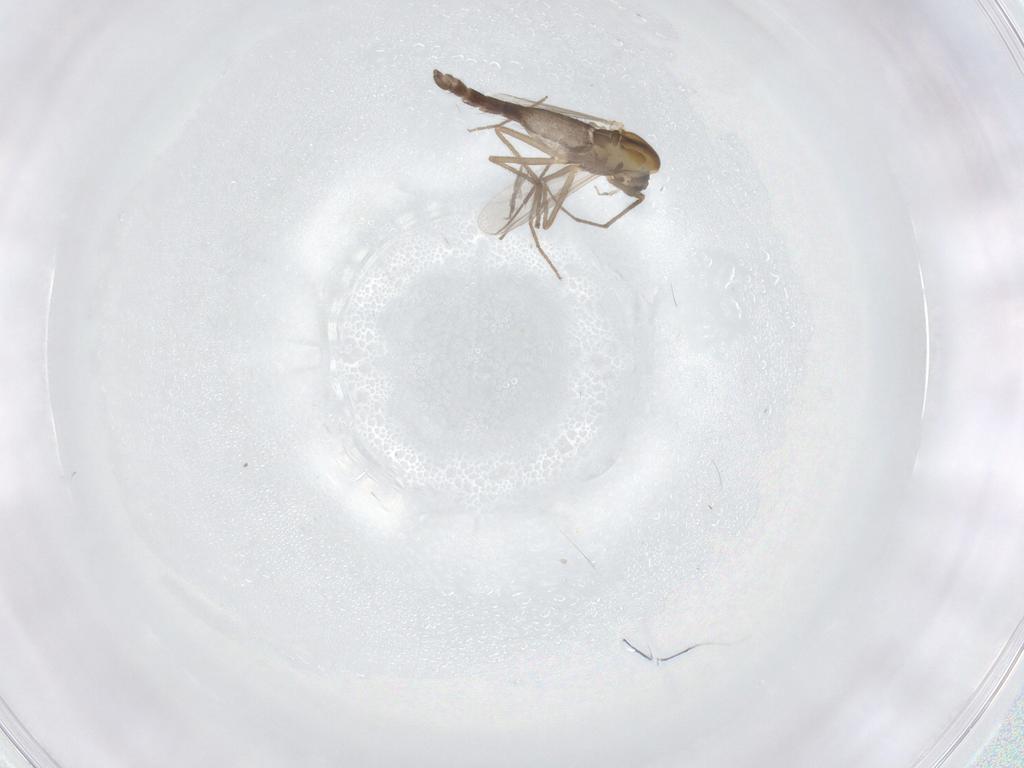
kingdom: Animalia
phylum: Arthropoda
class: Insecta
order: Diptera
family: Chironomidae
